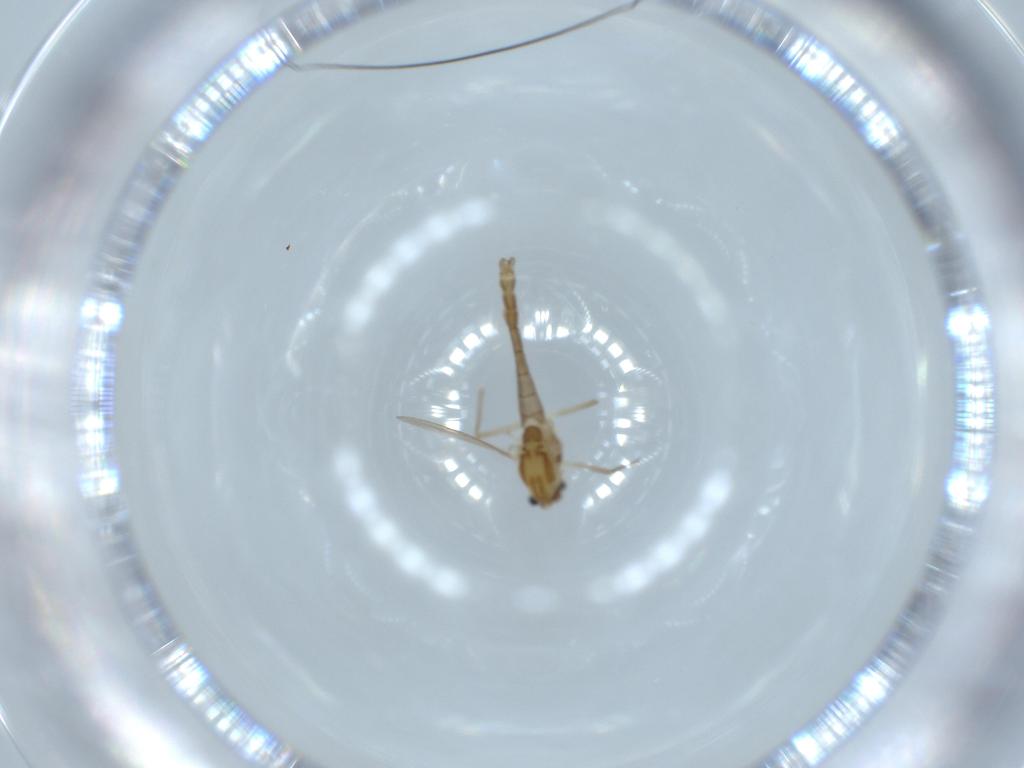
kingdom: Animalia
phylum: Arthropoda
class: Insecta
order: Diptera
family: Chironomidae
